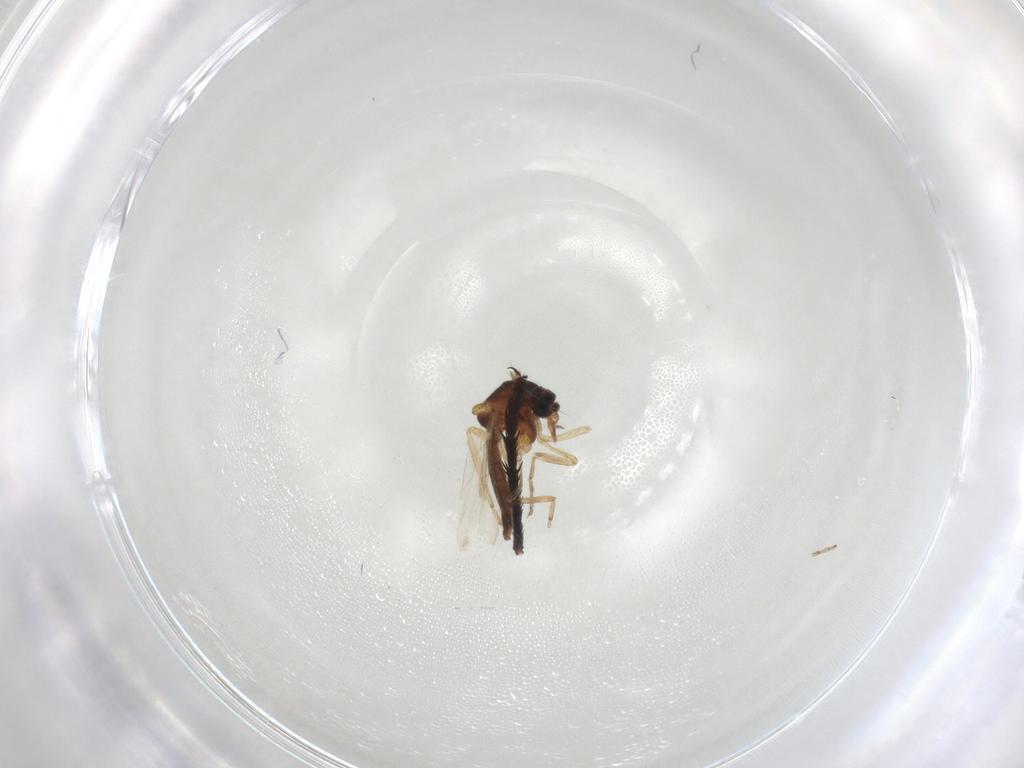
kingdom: Animalia
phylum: Arthropoda
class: Insecta
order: Diptera
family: Ceratopogonidae
